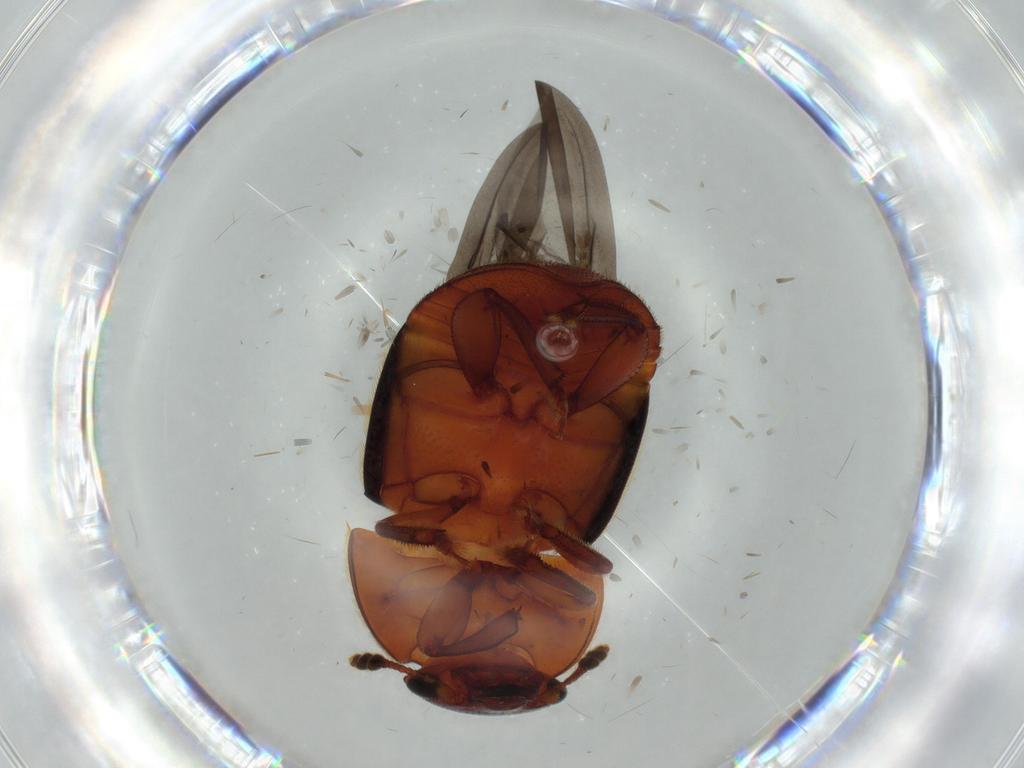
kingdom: Animalia
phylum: Arthropoda
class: Insecta
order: Coleoptera
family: Nitidulidae
